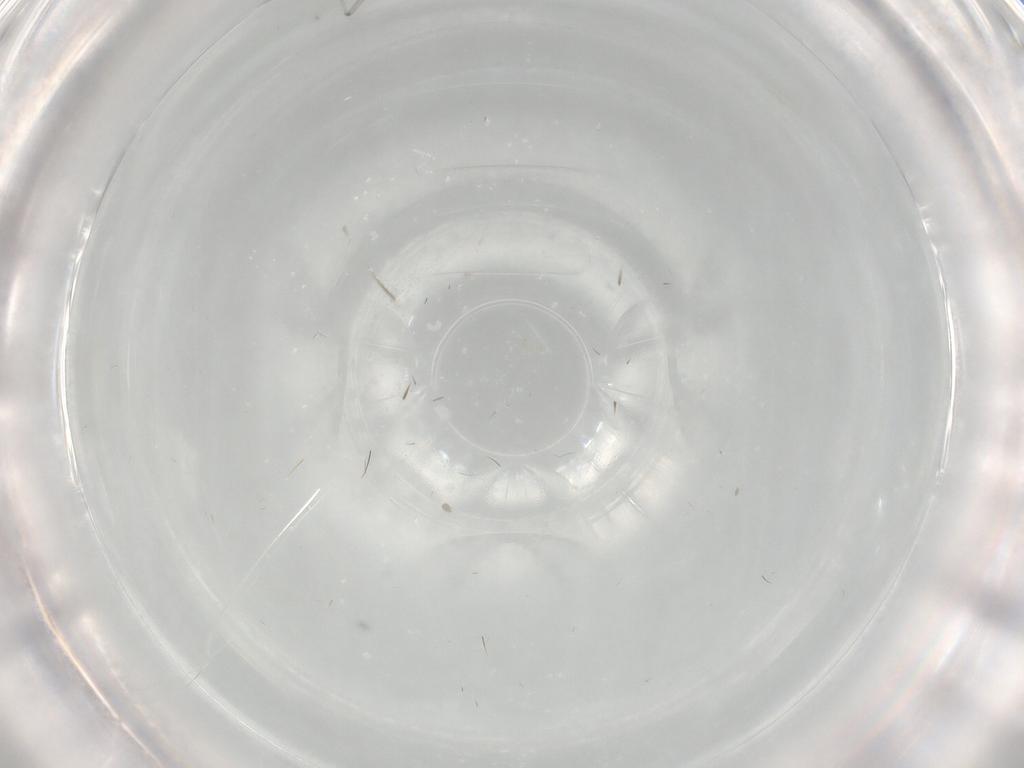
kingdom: Animalia
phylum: Arthropoda
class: Insecta
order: Diptera
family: Cecidomyiidae
